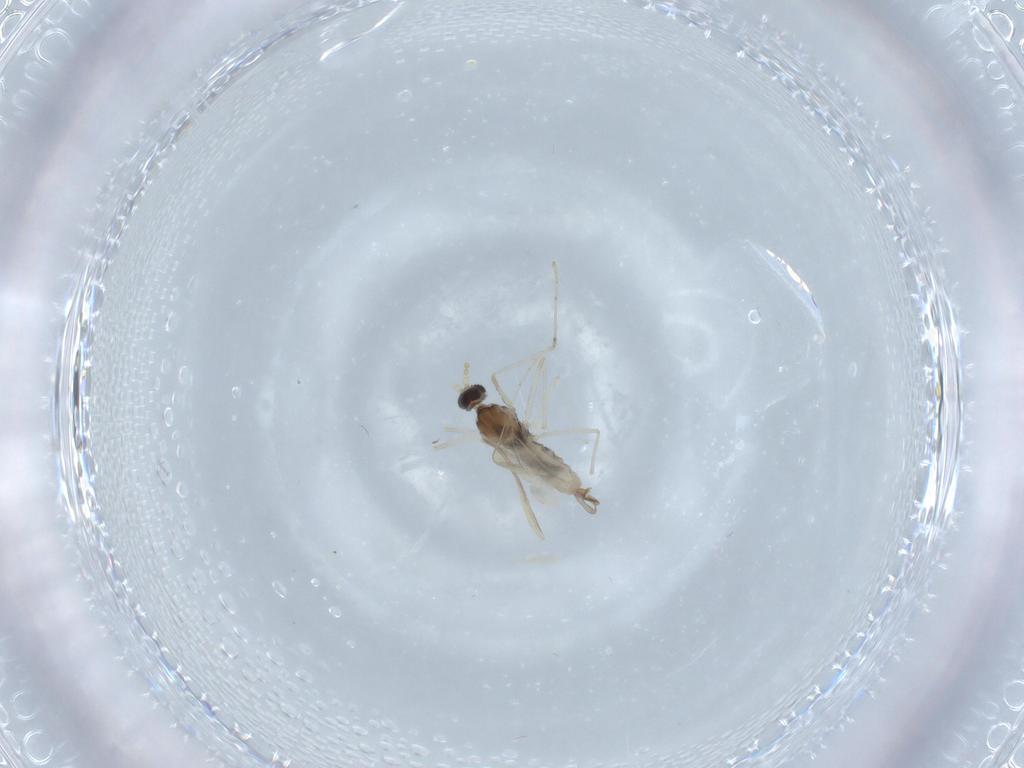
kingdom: Animalia
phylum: Arthropoda
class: Insecta
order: Diptera
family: Cecidomyiidae
